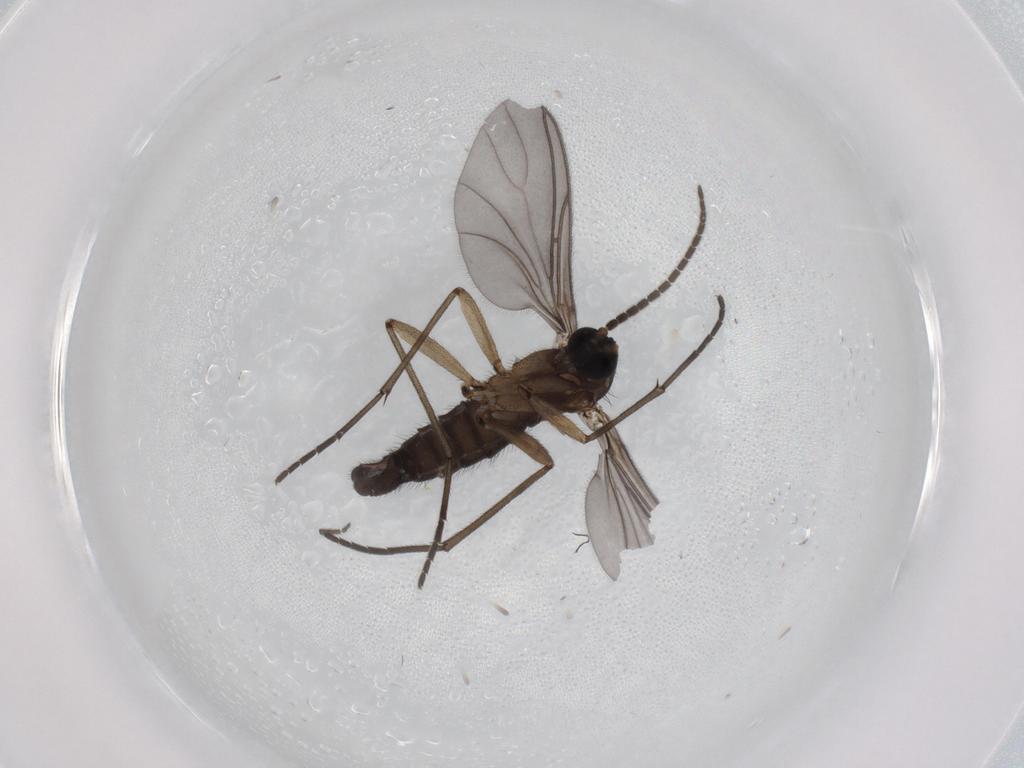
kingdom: Animalia
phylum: Arthropoda
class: Insecta
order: Diptera
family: Sciaridae
